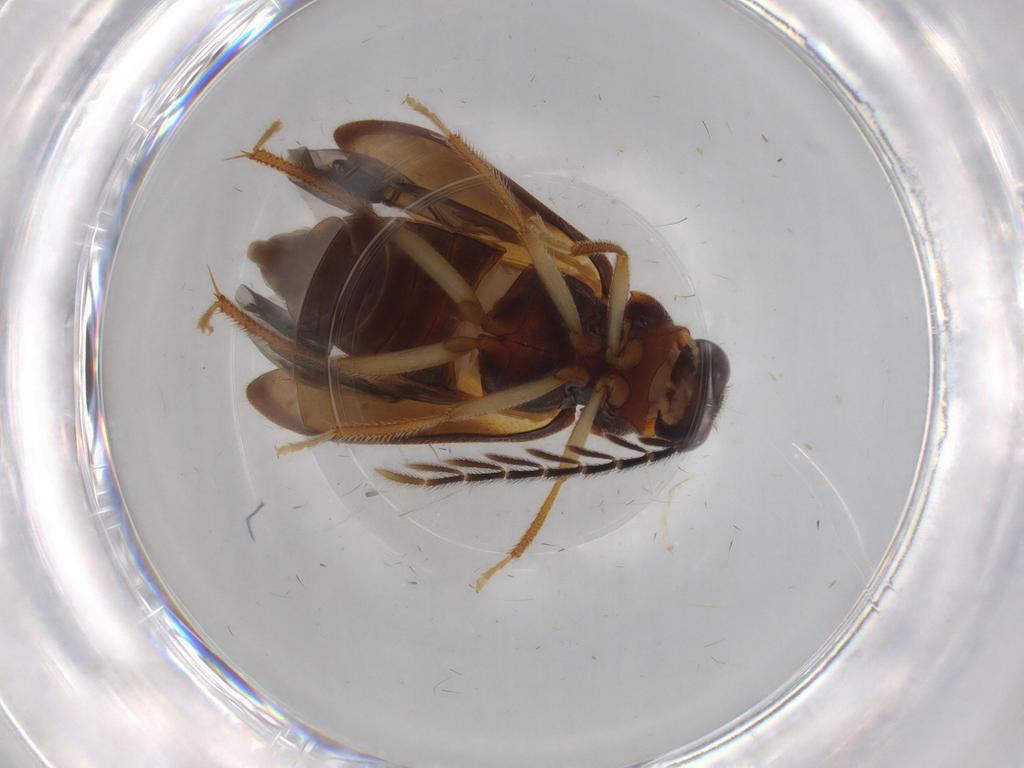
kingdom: Animalia
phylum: Arthropoda
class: Insecta
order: Coleoptera
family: Ptilodactylidae
